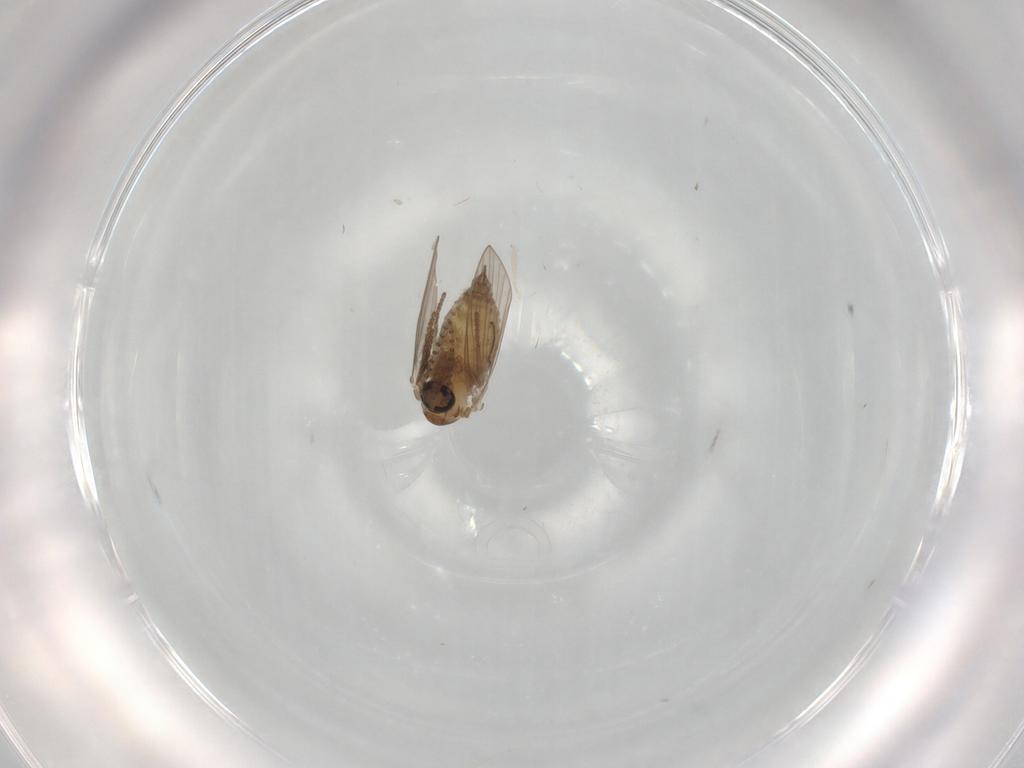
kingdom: Animalia
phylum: Arthropoda
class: Insecta
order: Diptera
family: Psychodidae
